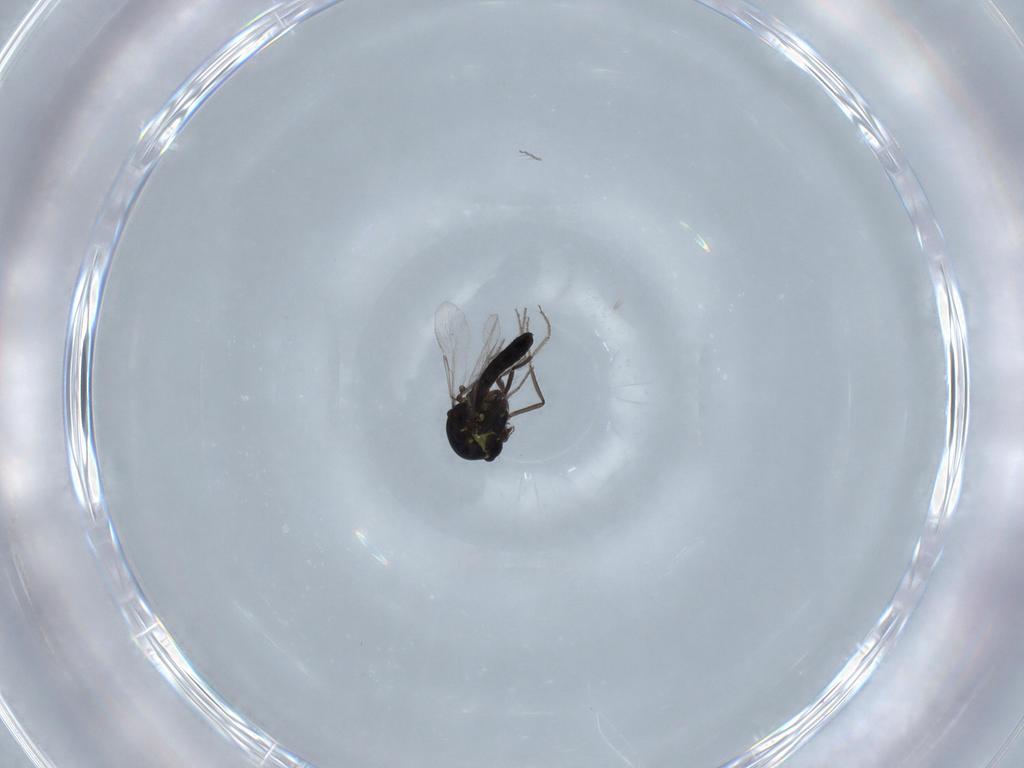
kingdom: Animalia
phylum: Arthropoda
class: Insecta
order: Diptera
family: Ceratopogonidae
